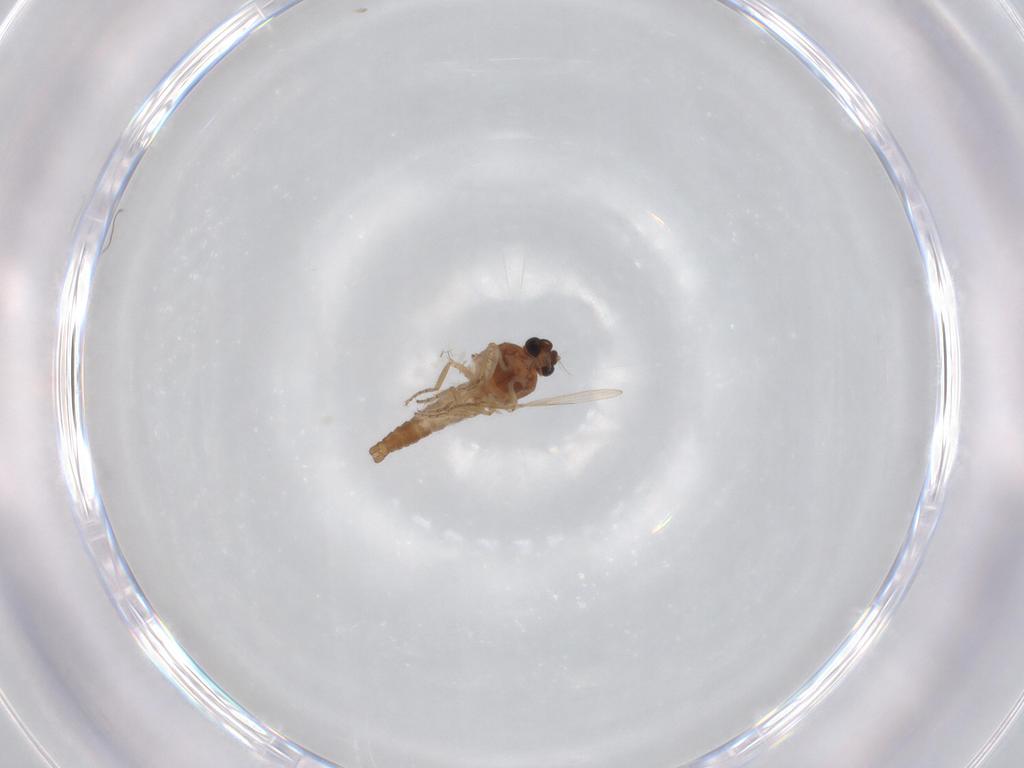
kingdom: Animalia
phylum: Arthropoda
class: Insecta
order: Diptera
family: Ceratopogonidae
